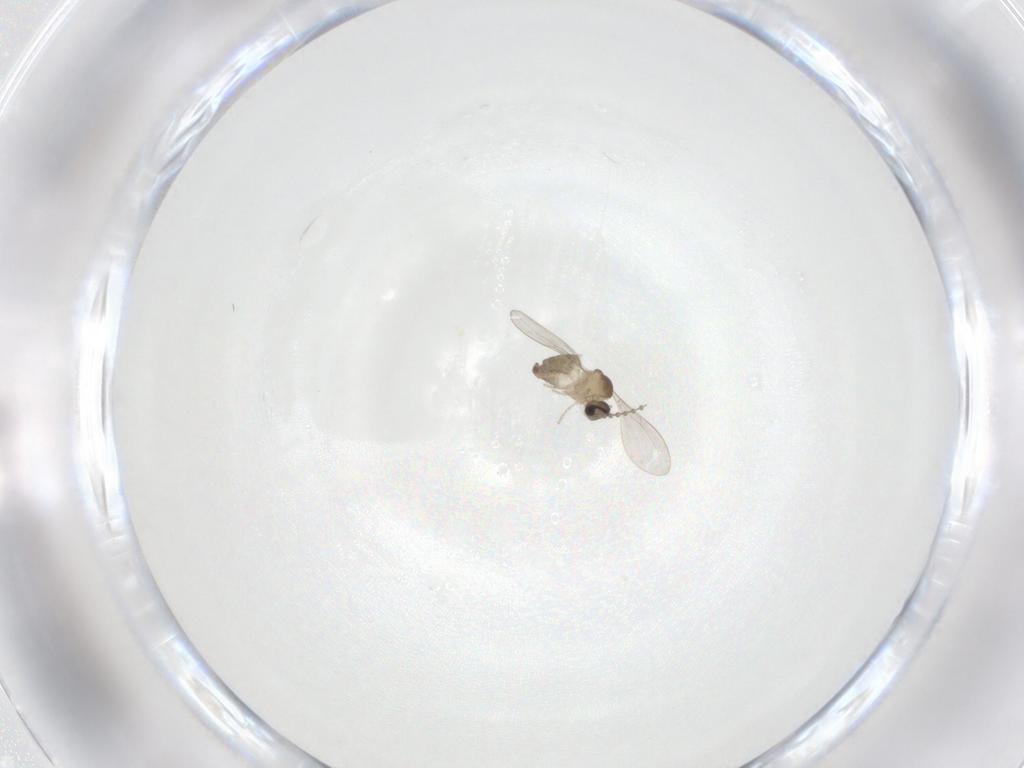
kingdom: Animalia
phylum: Arthropoda
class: Insecta
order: Diptera
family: Cecidomyiidae
